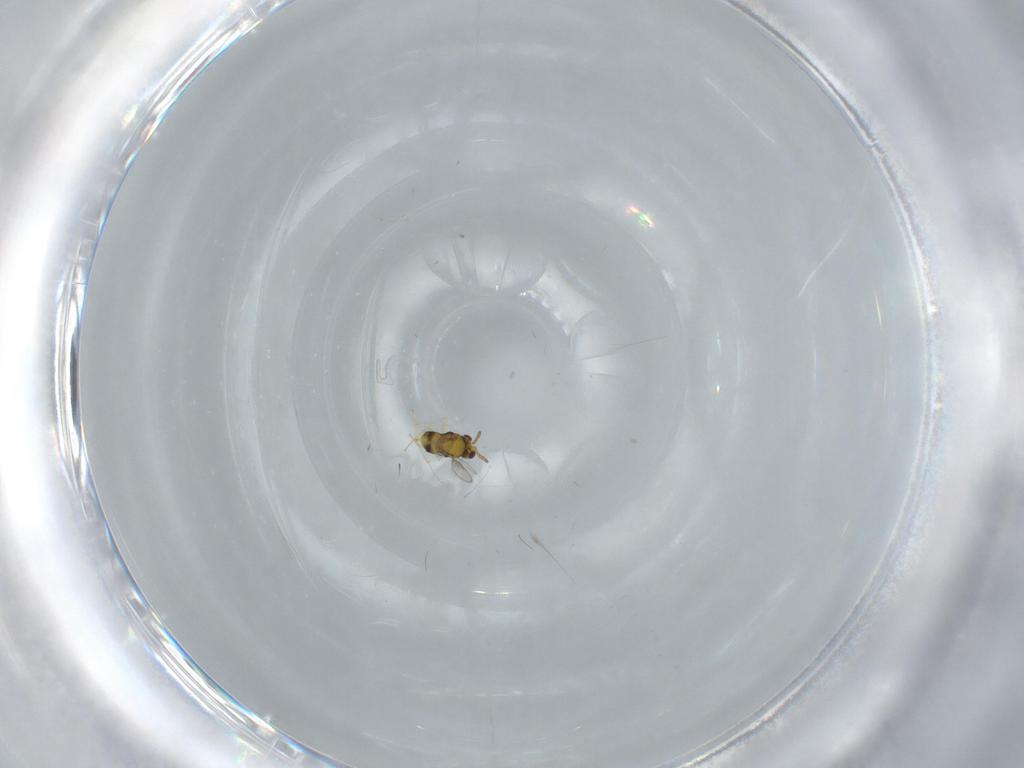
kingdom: Animalia
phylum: Arthropoda
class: Insecta
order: Hymenoptera
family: Aphelinidae
